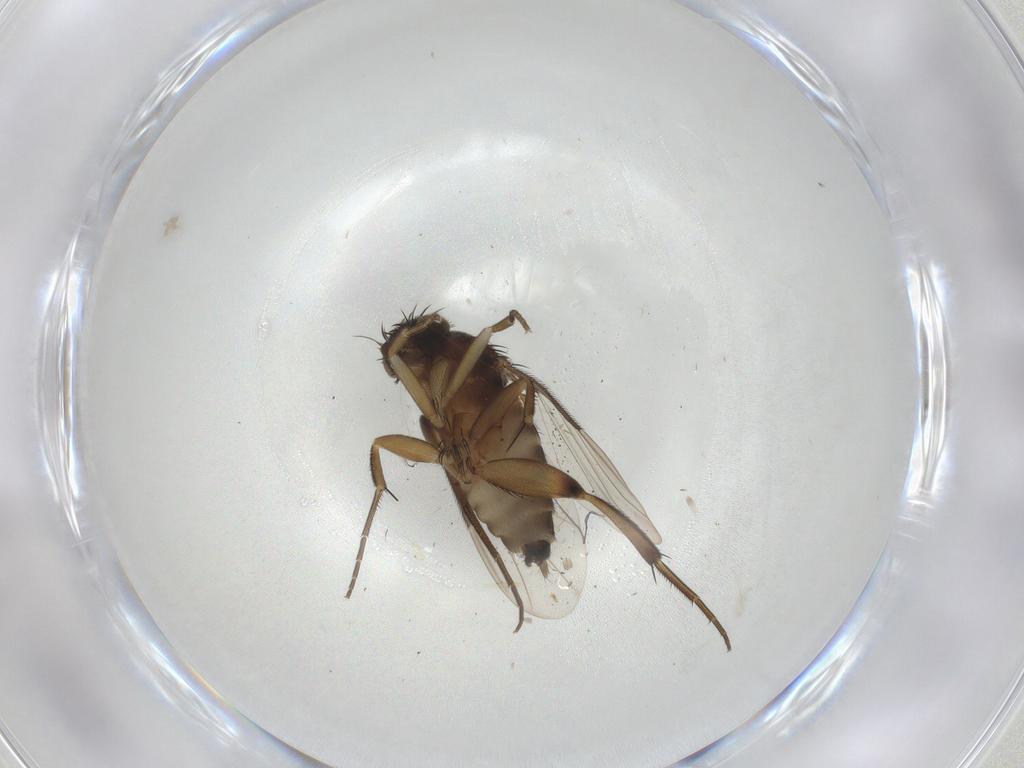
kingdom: Animalia
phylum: Arthropoda
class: Insecta
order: Diptera
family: Phoridae
